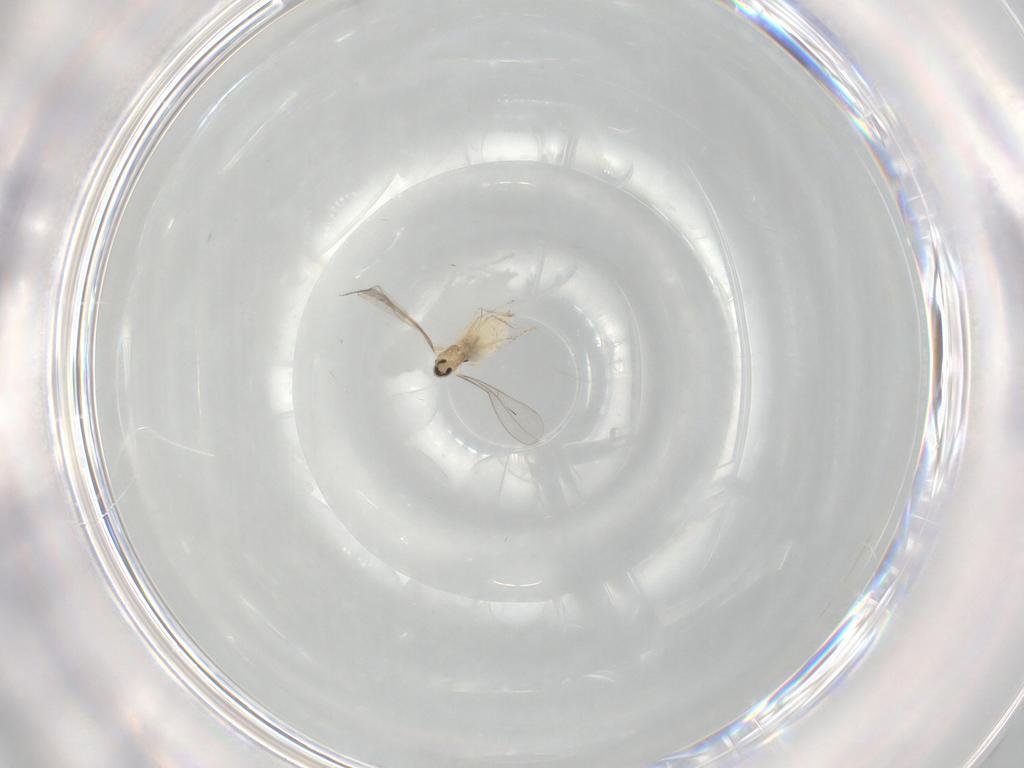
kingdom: Animalia
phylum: Arthropoda
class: Insecta
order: Diptera
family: Cecidomyiidae
